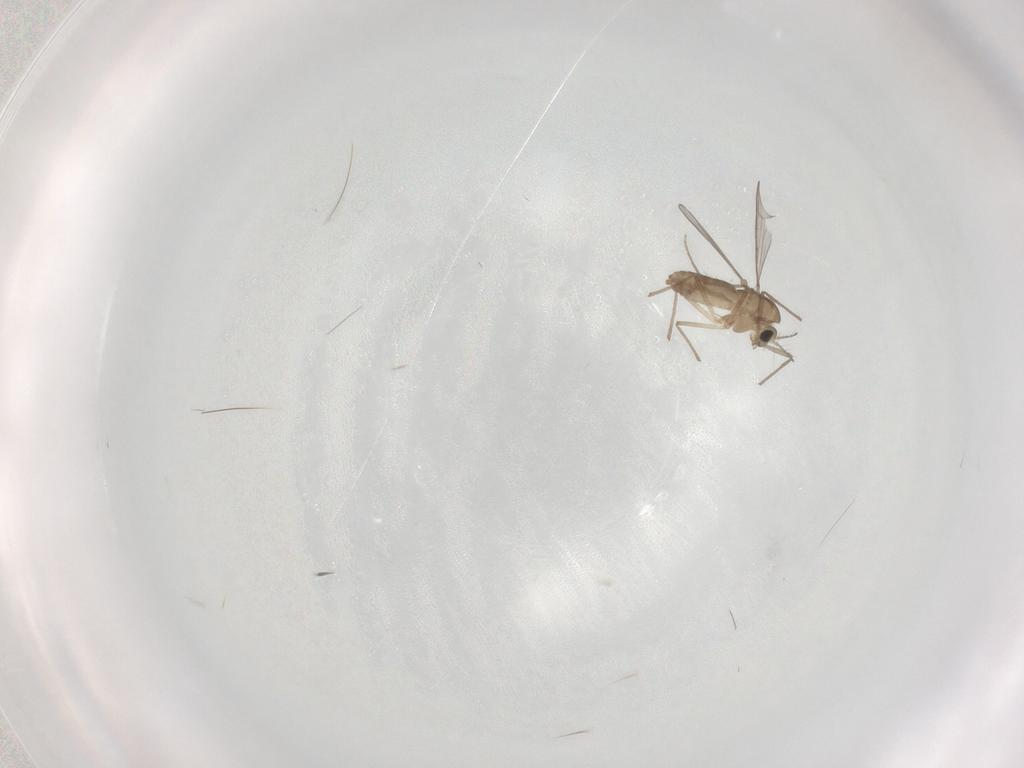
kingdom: Animalia
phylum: Arthropoda
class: Insecta
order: Diptera
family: Chironomidae
